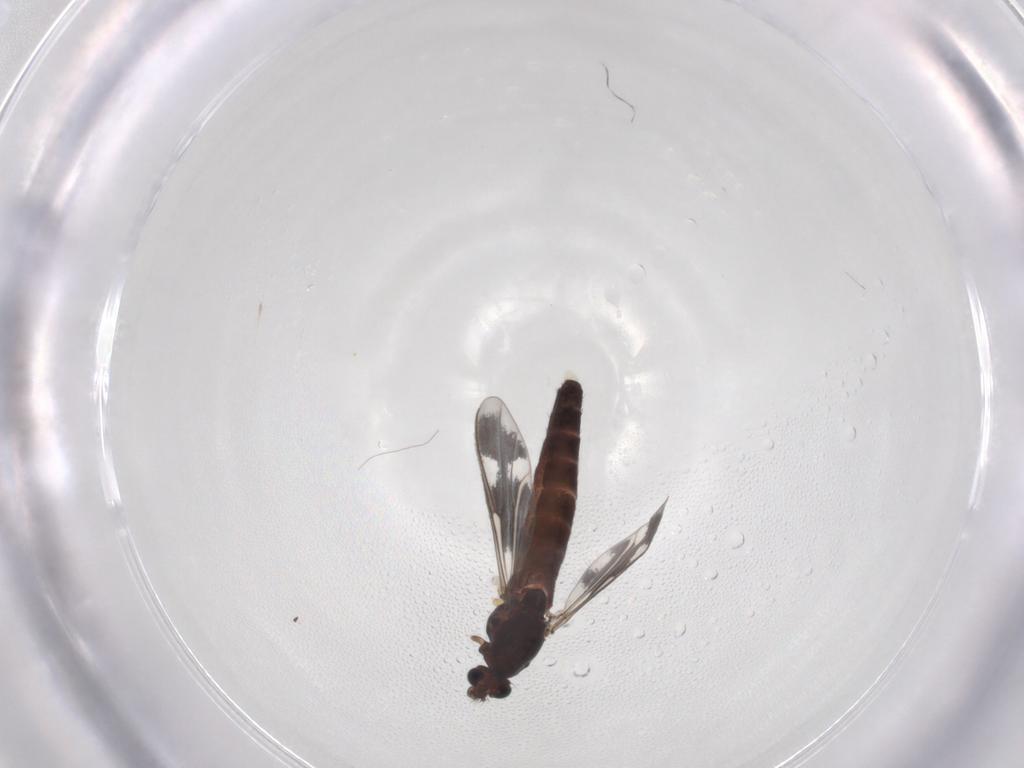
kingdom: Animalia
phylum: Arthropoda
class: Insecta
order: Diptera
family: Chironomidae
